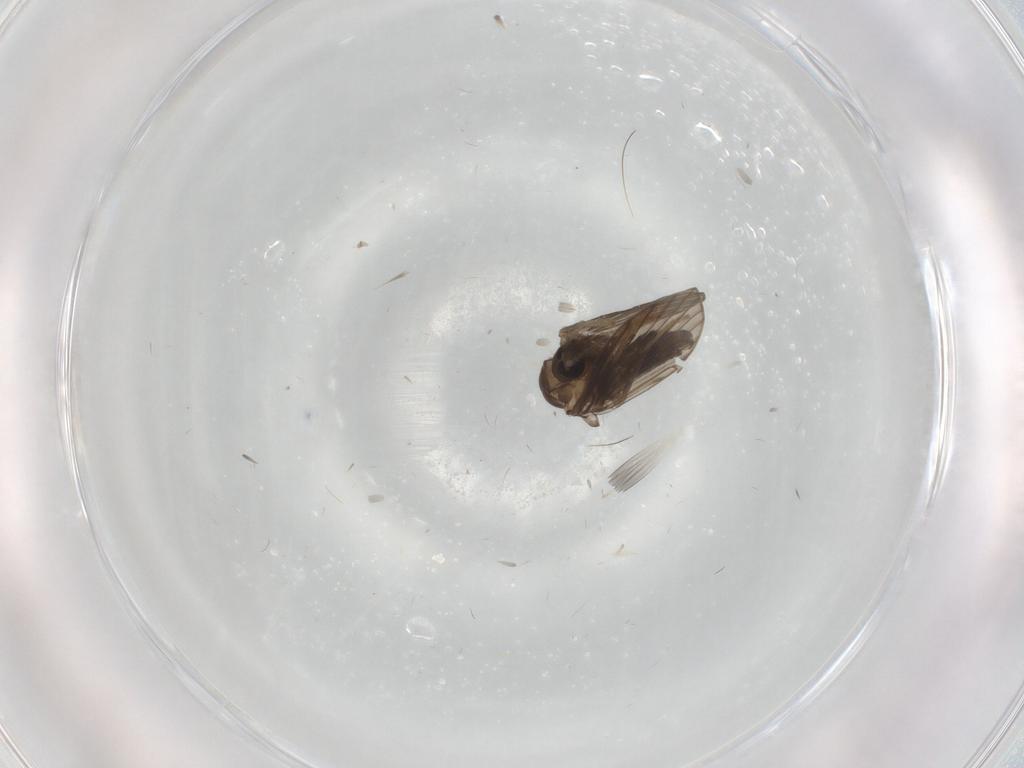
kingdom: Animalia
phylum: Arthropoda
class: Insecta
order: Diptera
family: Psychodidae
